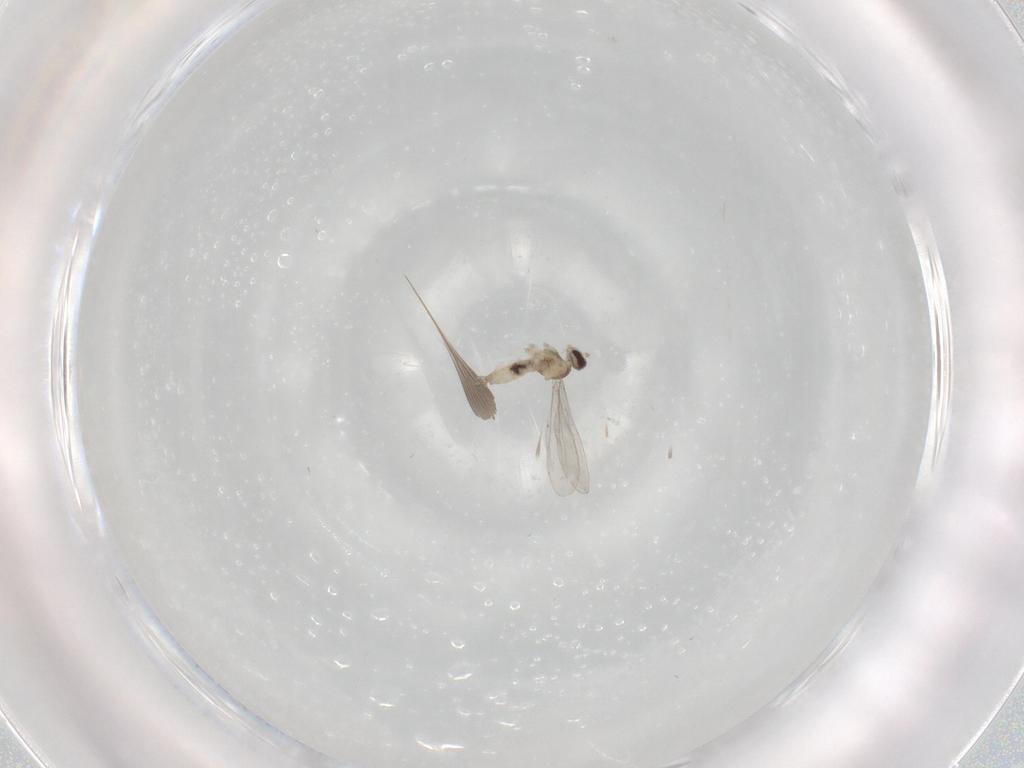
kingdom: Animalia
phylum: Arthropoda
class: Insecta
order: Diptera
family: Cecidomyiidae
